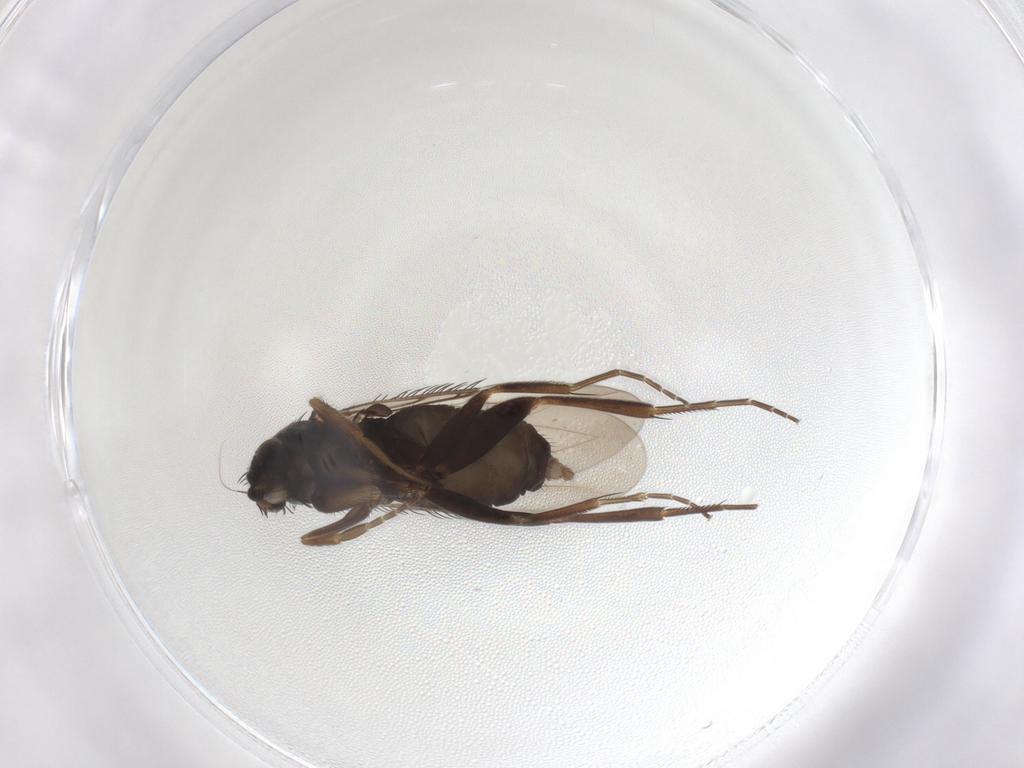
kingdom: Animalia
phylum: Arthropoda
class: Insecta
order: Diptera
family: Phoridae
